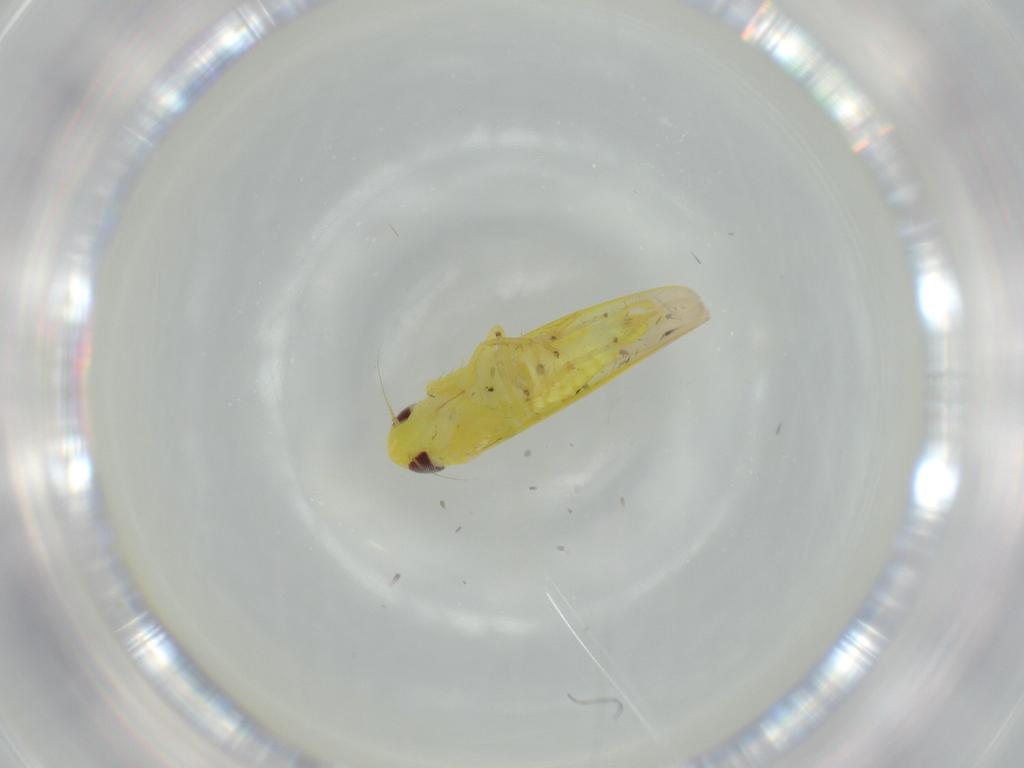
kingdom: Animalia
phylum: Arthropoda
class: Insecta
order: Hemiptera
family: Cicadellidae
